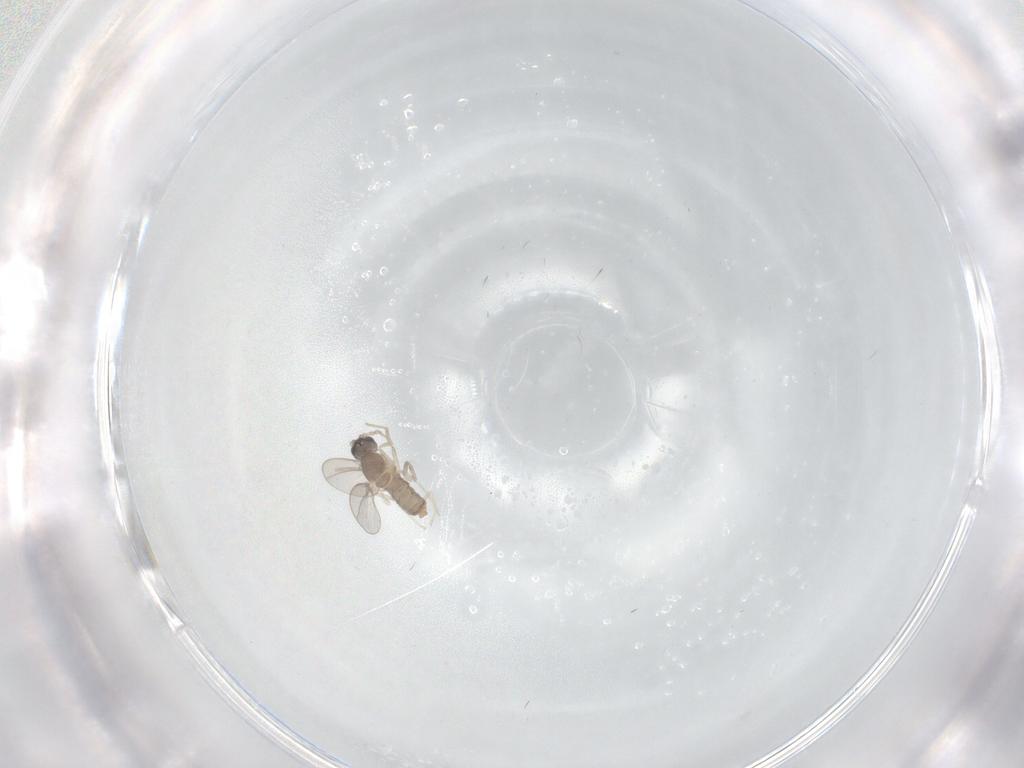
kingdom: Animalia
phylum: Arthropoda
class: Insecta
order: Diptera
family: Cecidomyiidae
